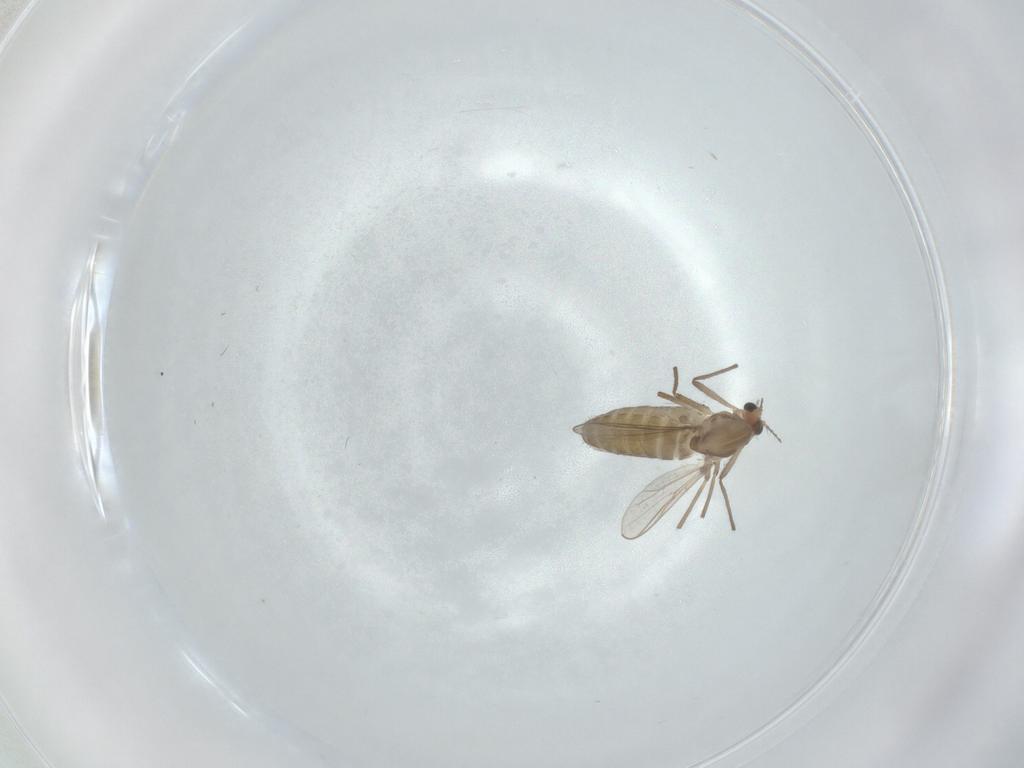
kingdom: Animalia
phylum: Arthropoda
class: Insecta
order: Diptera
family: Chironomidae
